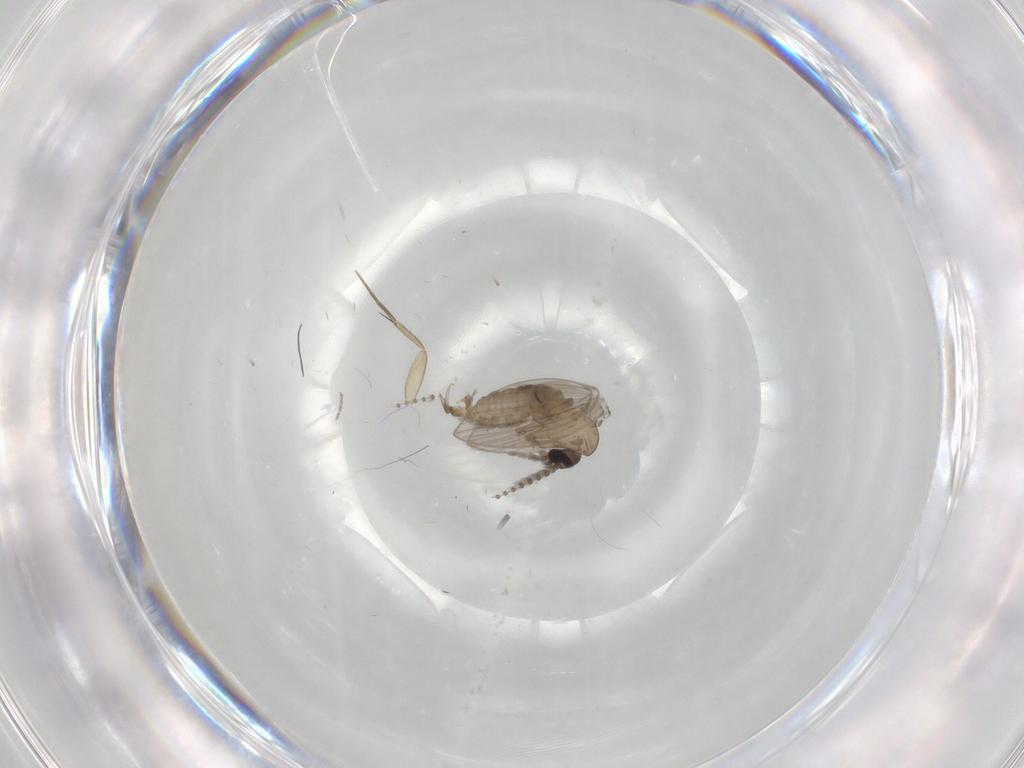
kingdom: Animalia
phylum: Arthropoda
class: Insecta
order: Diptera
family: Psychodidae
